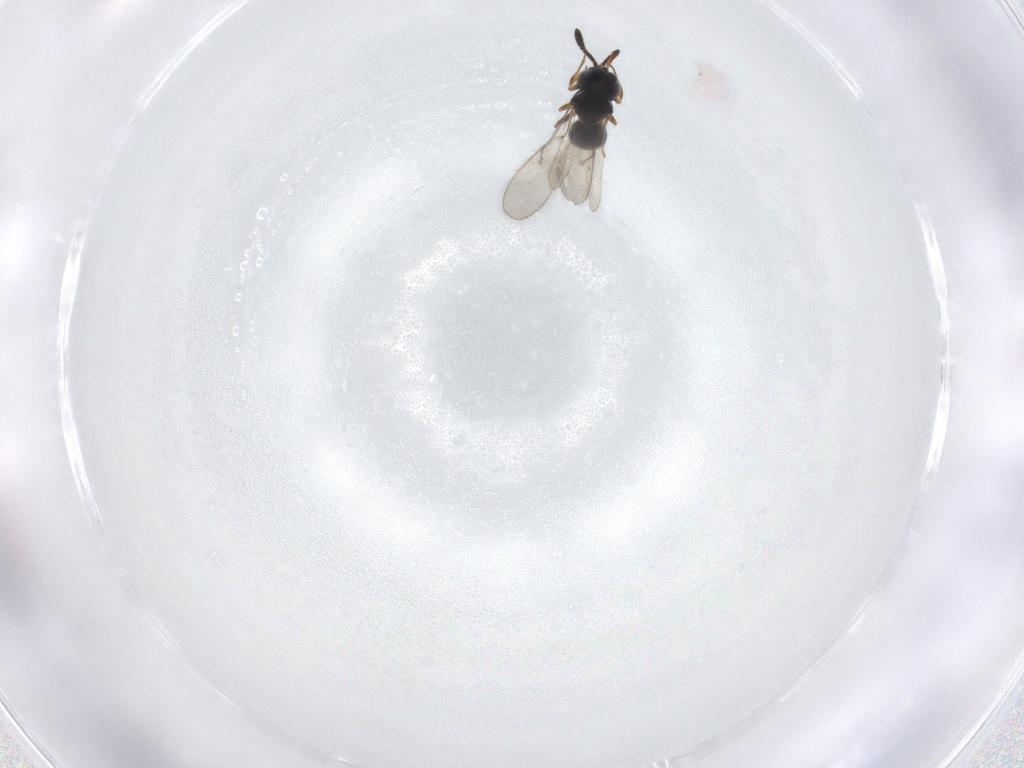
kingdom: Animalia
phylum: Arthropoda
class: Insecta
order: Hymenoptera
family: Scelionidae
